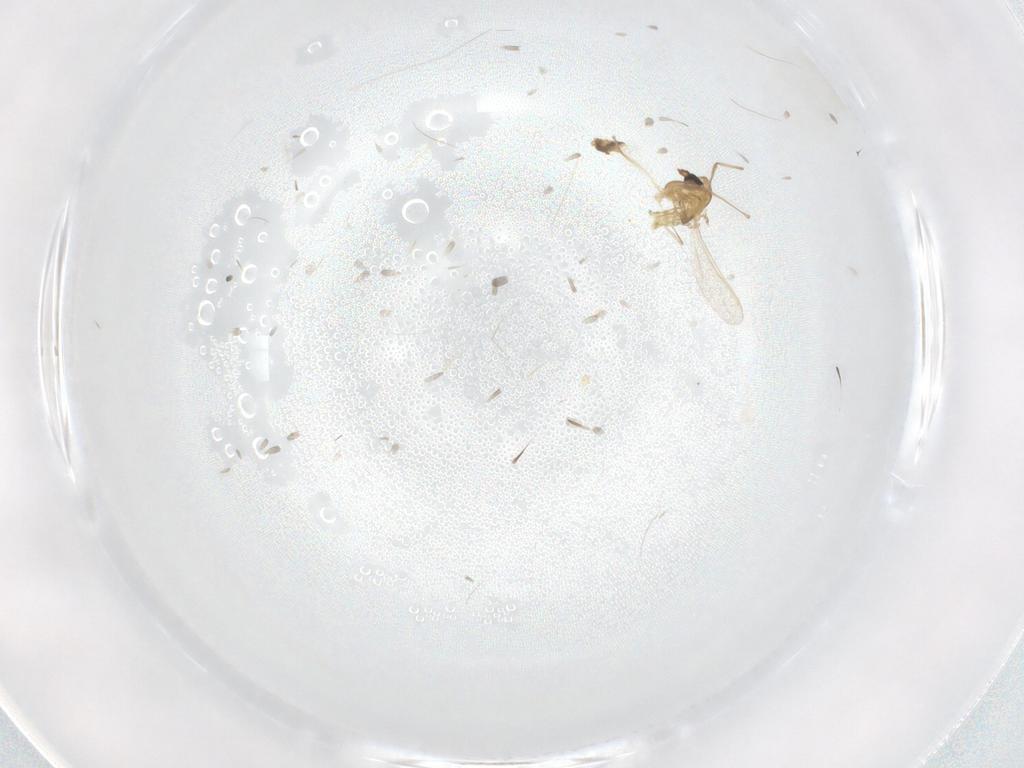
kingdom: Animalia
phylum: Arthropoda
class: Insecta
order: Diptera
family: Chironomidae
